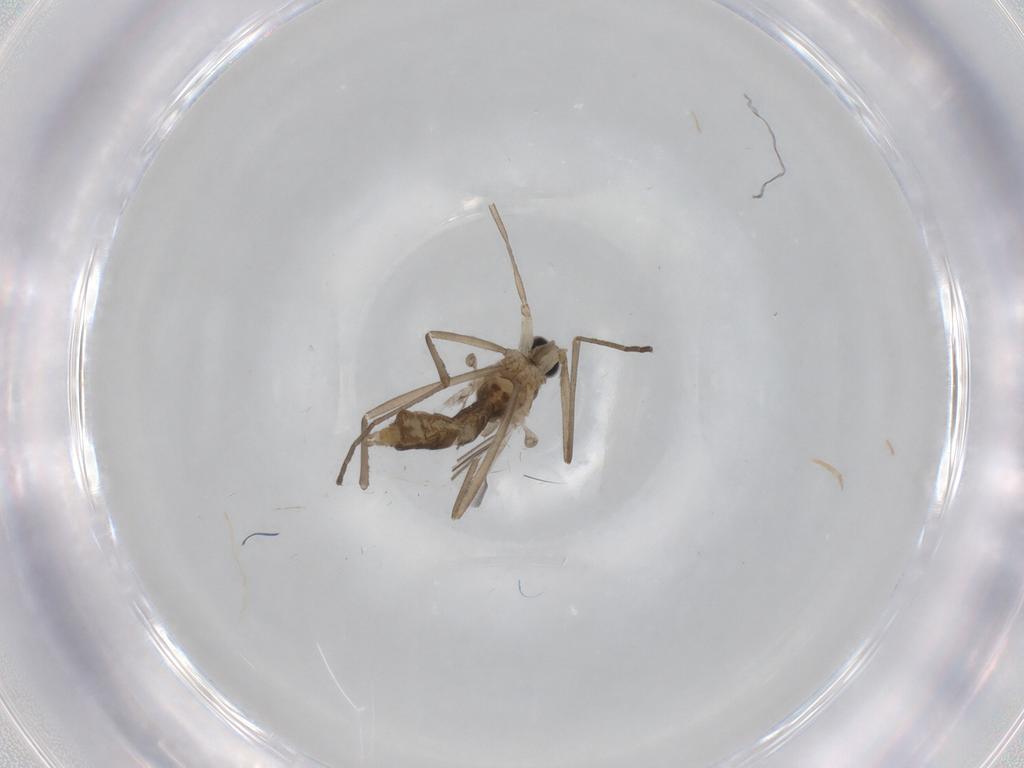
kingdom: Animalia
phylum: Arthropoda
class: Insecta
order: Diptera
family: Cecidomyiidae
